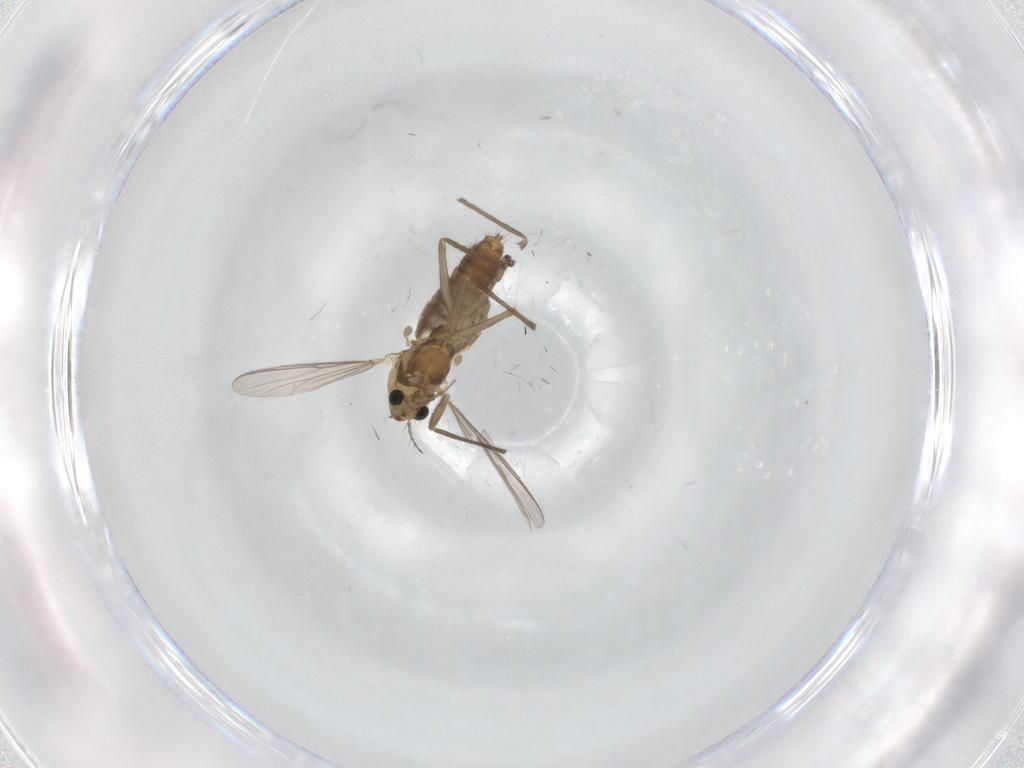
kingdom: Animalia
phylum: Arthropoda
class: Insecta
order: Diptera
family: Chironomidae
